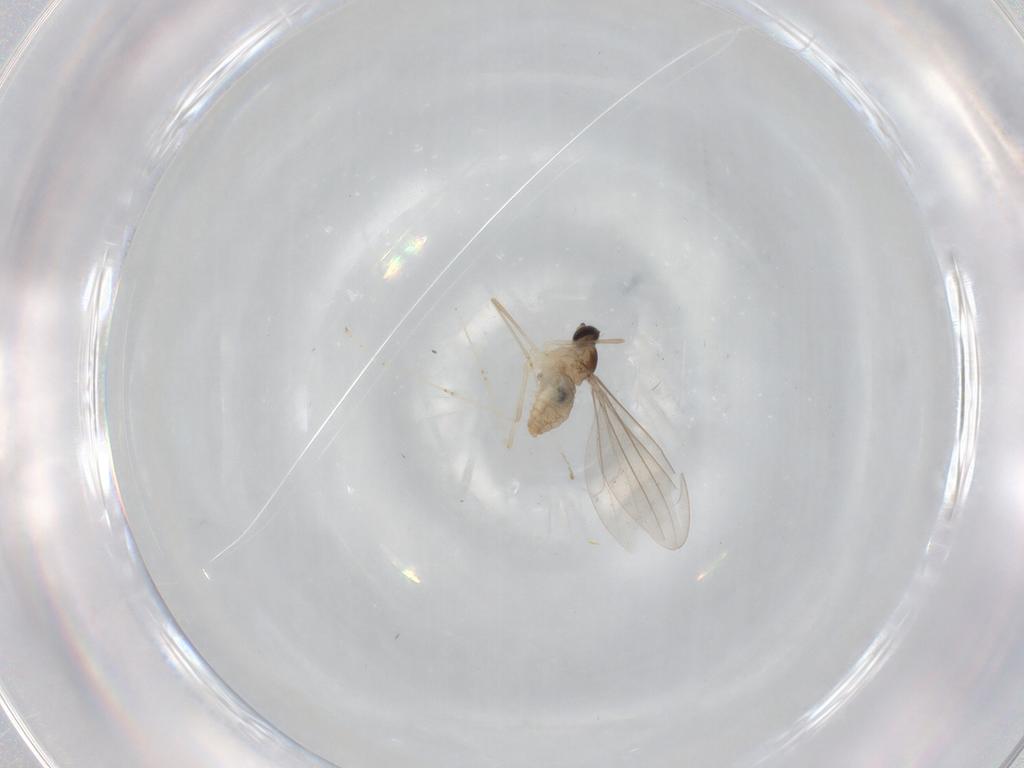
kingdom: Animalia
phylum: Arthropoda
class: Insecta
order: Diptera
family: Cecidomyiidae
